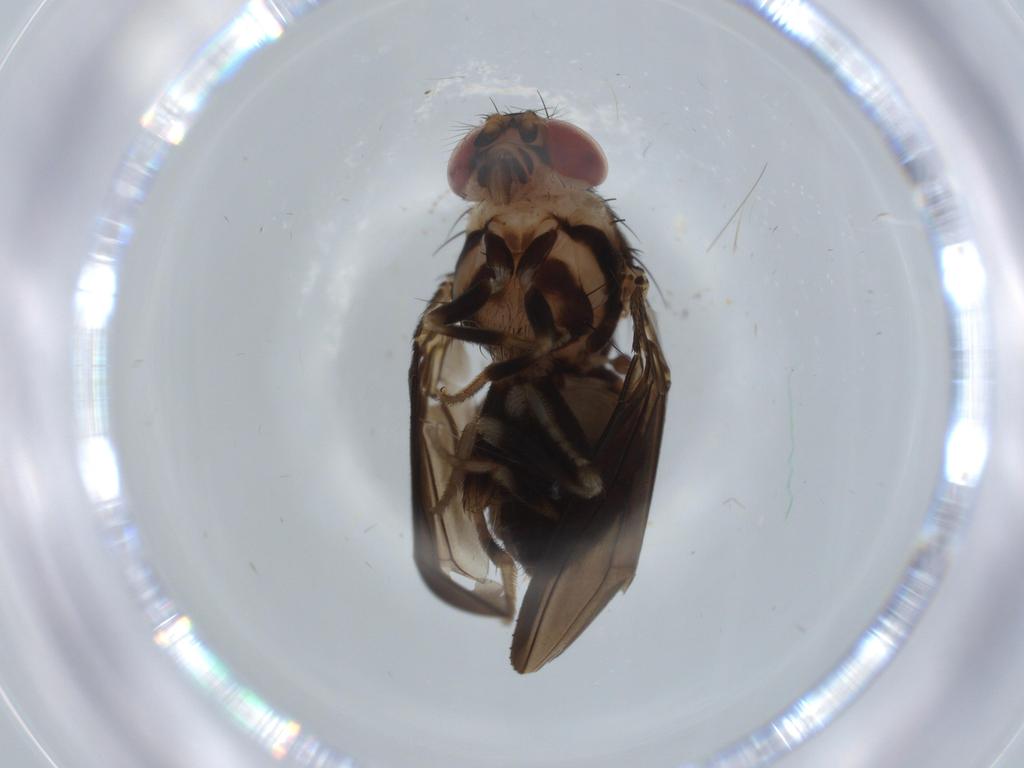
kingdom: Animalia
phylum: Arthropoda
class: Insecta
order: Diptera
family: Cecidomyiidae
